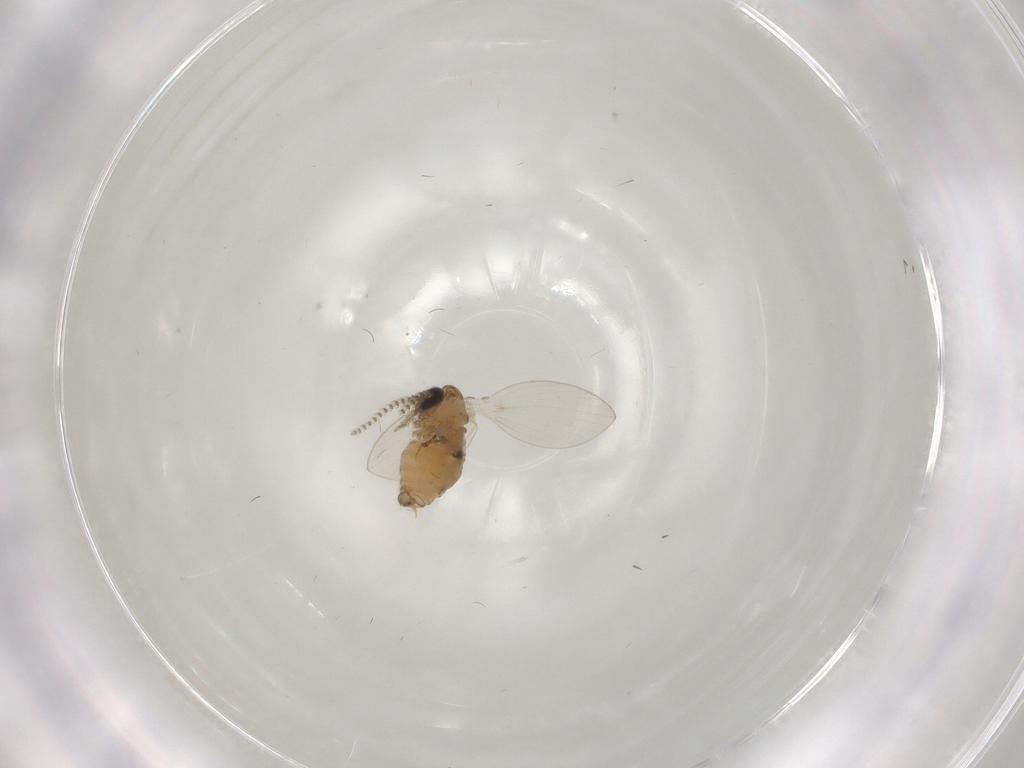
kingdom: Animalia
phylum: Arthropoda
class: Insecta
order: Diptera
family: Psychodidae
